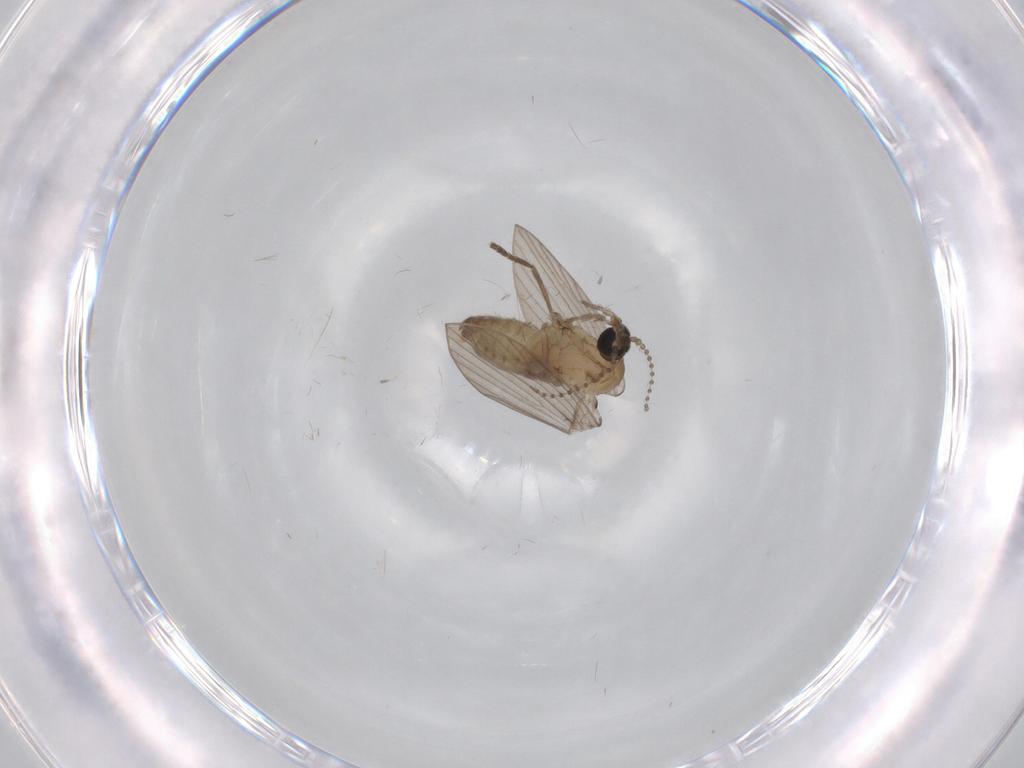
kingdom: Animalia
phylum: Arthropoda
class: Insecta
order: Diptera
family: Psychodidae
